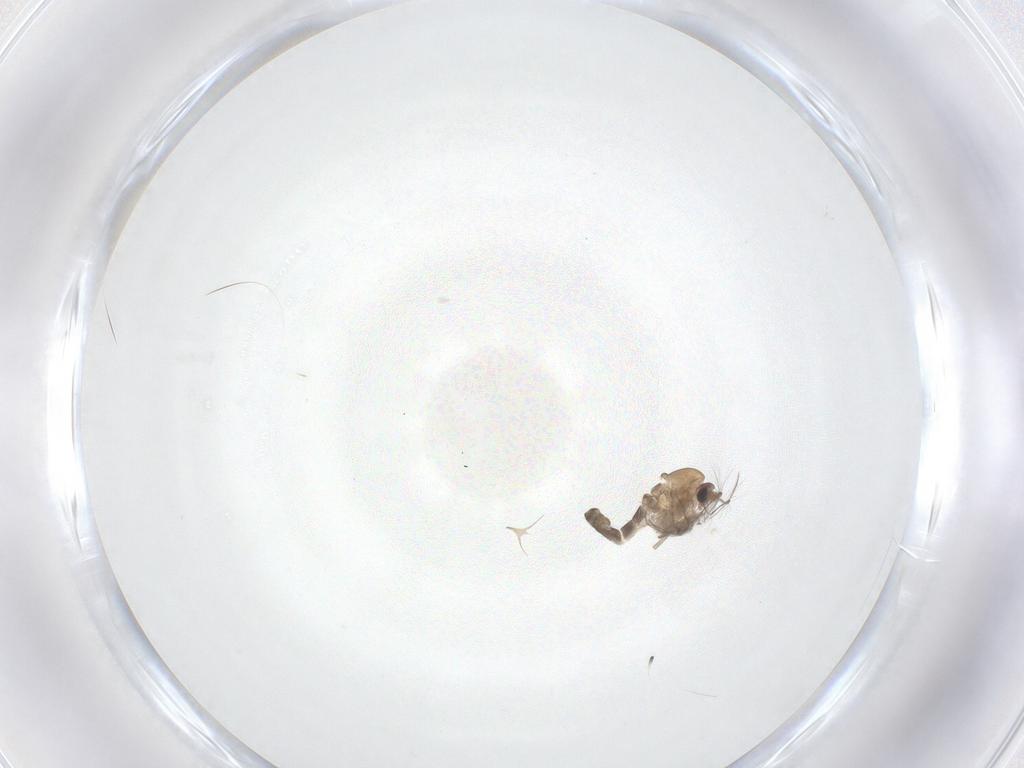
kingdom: Animalia
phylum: Arthropoda
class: Insecta
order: Diptera
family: Chironomidae
